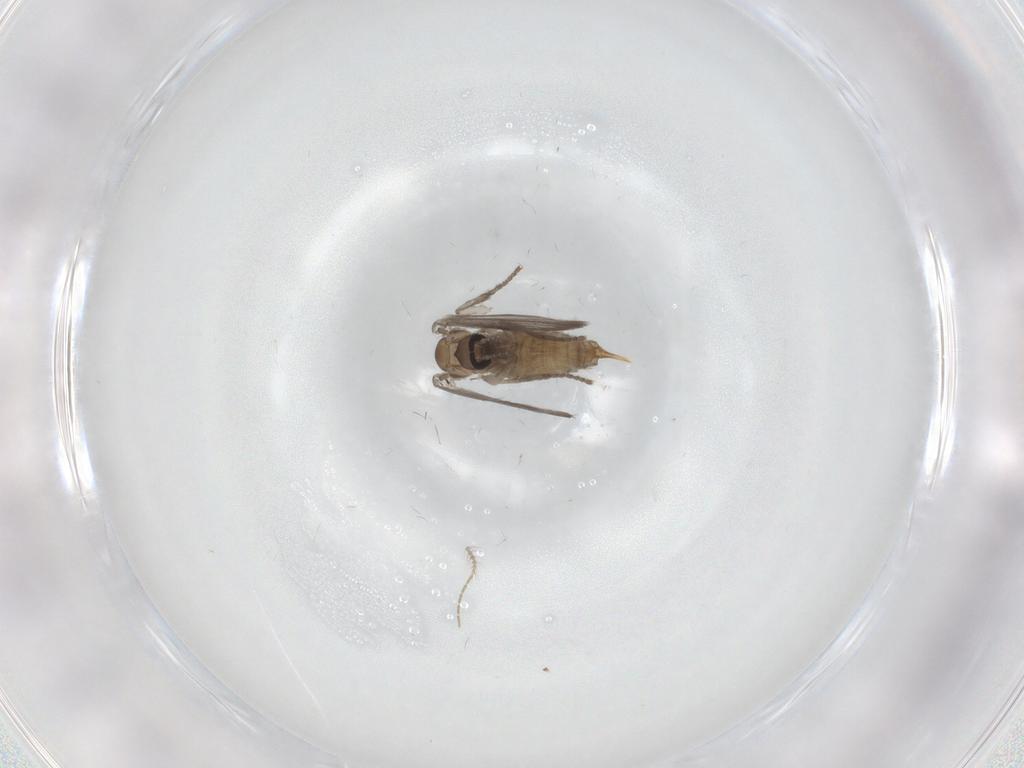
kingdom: Animalia
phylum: Arthropoda
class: Insecta
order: Diptera
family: Psychodidae
